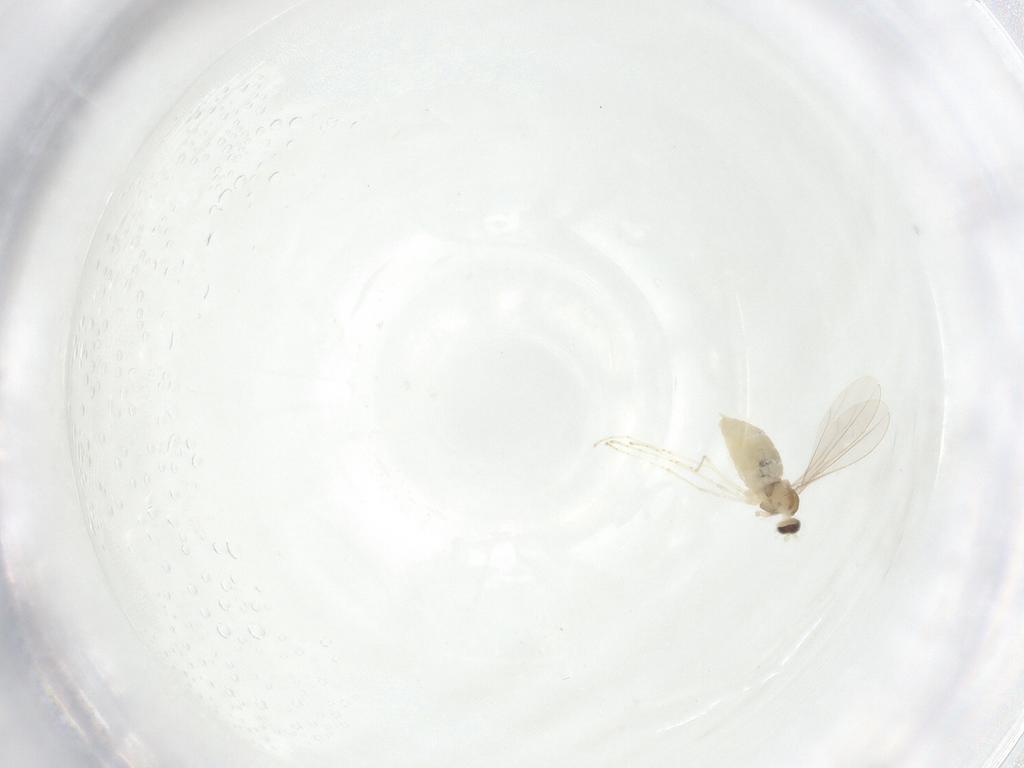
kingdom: Animalia
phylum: Arthropoda
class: Insecta
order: Diptera
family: Cecidomyiidae
